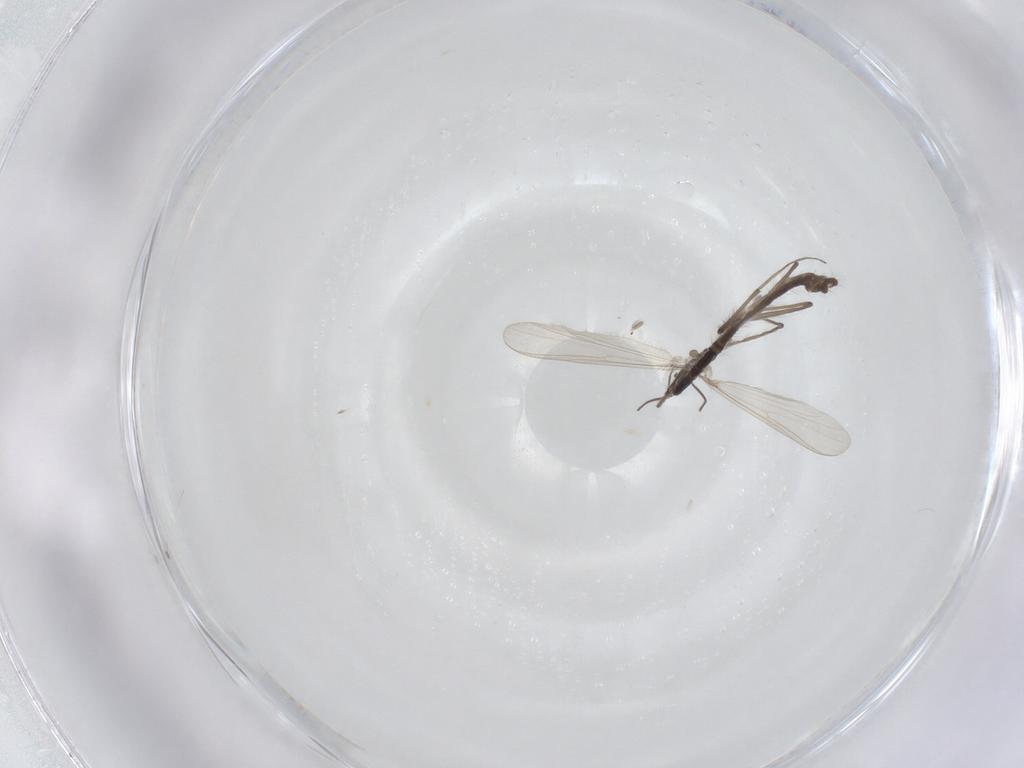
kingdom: Animalia
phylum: Arthropoda
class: Insecta
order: Diptera
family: Chironomidae
